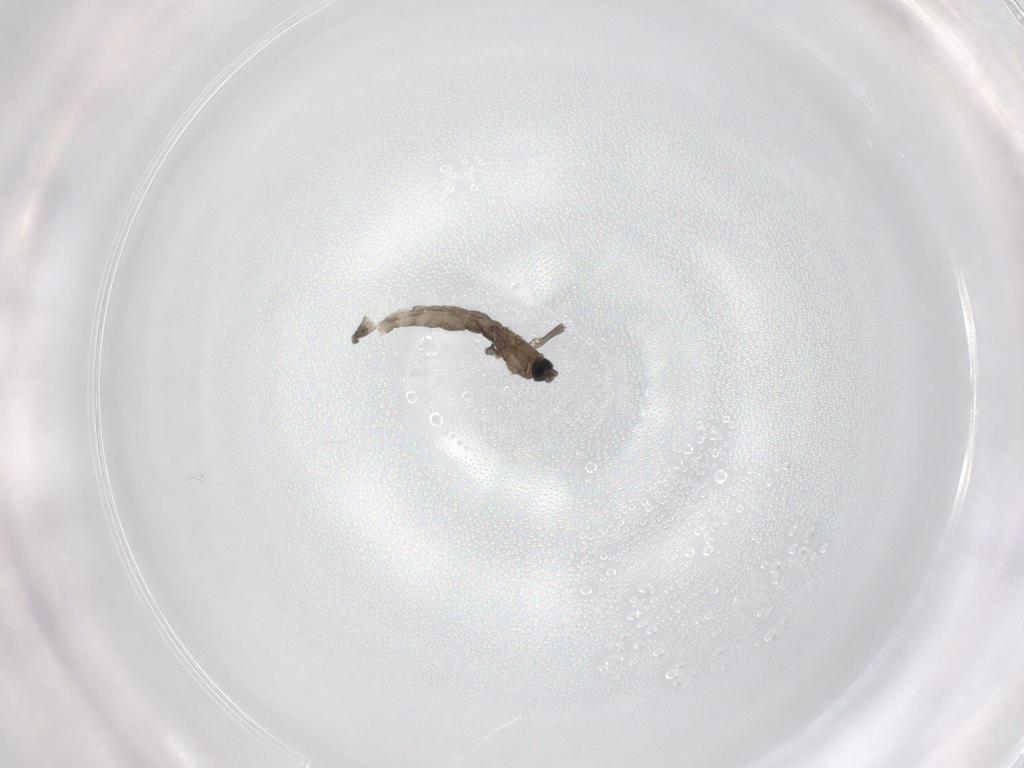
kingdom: Animalia
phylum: Arthropoda
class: Insecta
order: Diptera
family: Sciaridae
